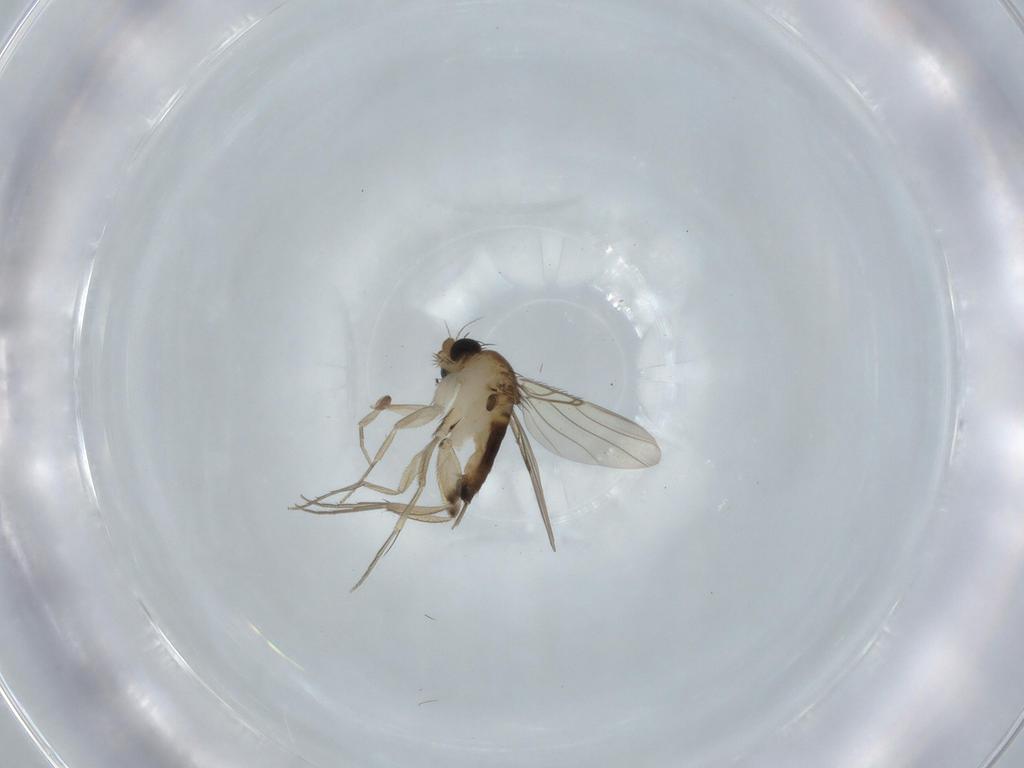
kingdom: Animalia
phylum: Arthropoda
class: Insecta
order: Diptera
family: Phoridae
